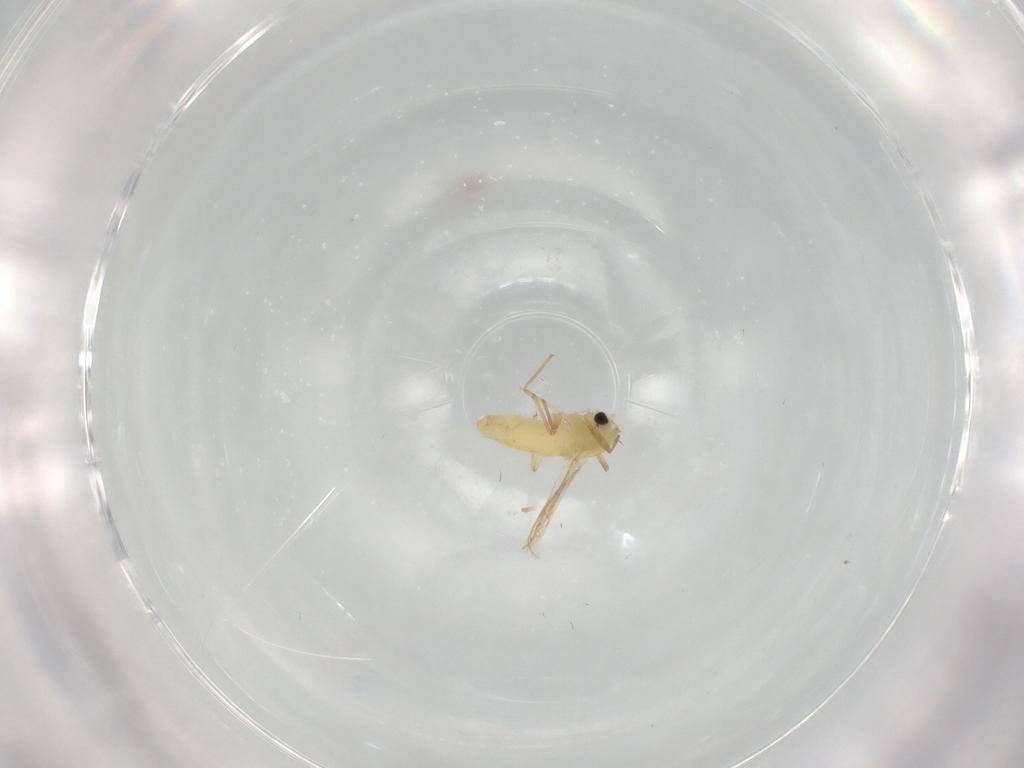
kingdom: Animalia
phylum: Arthropoda
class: Insecta
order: Diptera
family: Chironomidae
